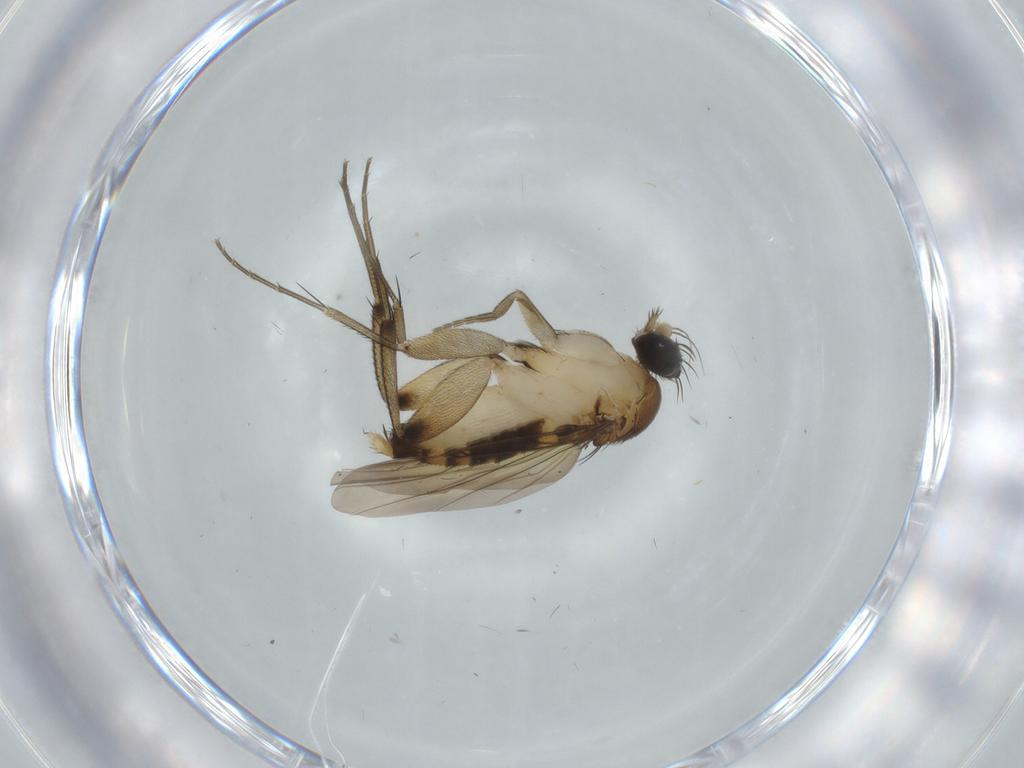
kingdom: Animalia
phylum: Arthropoda
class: Insecta
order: Diptera
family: Phoridae
